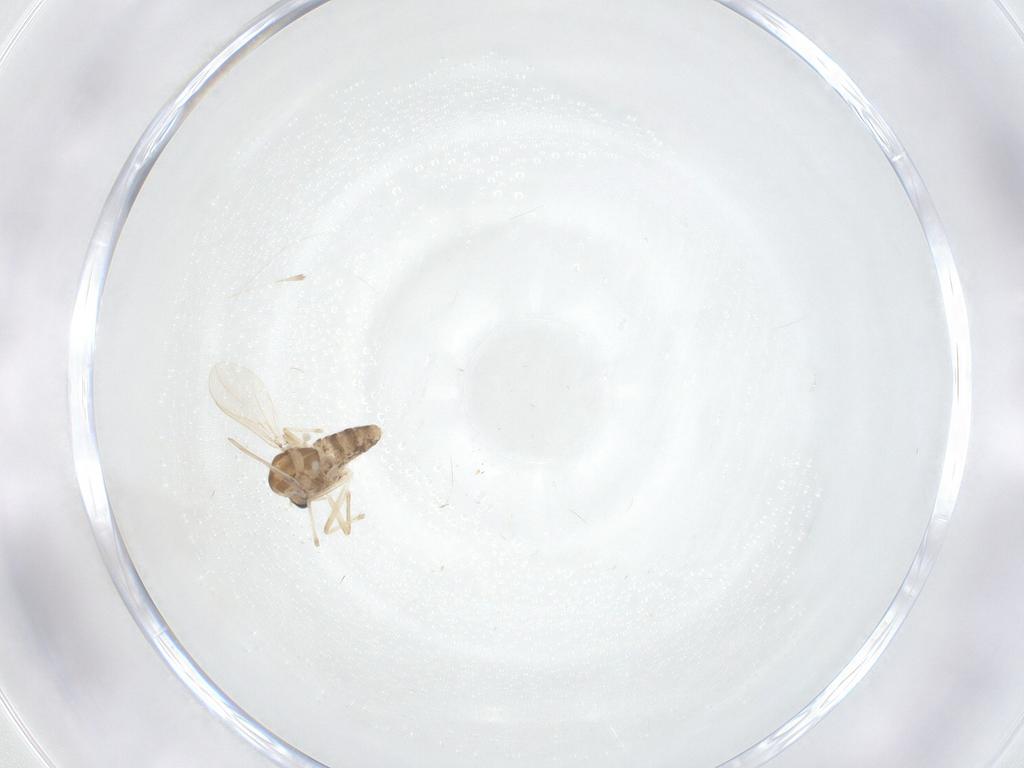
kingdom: Animalia
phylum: Arthropoda
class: Insecta
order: Diptera
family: Chironomidae
